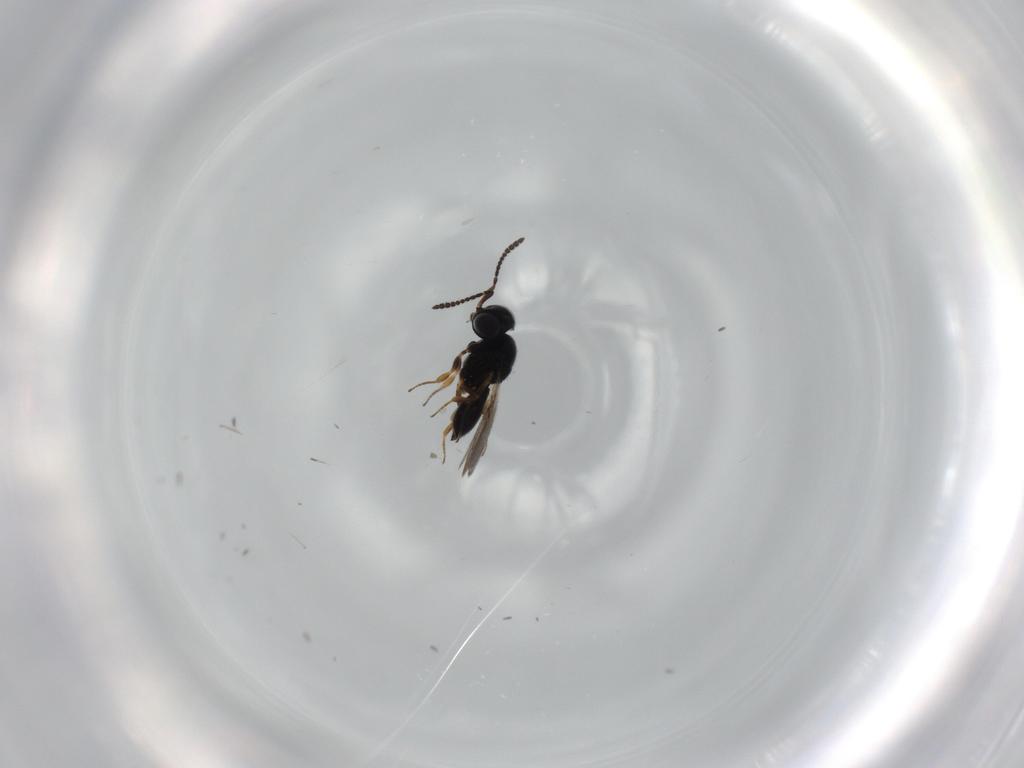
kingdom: Animalia
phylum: Arthropoda
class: Insecta
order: Hymenoptera
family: Scelionidae
